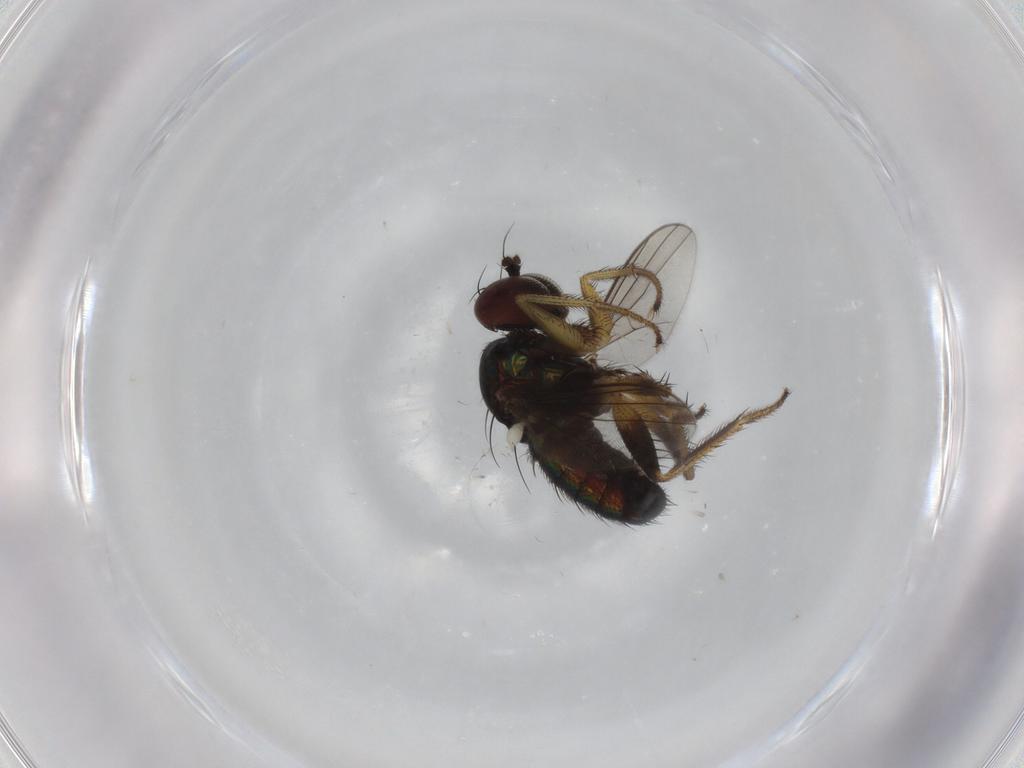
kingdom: Animalia
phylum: Arthropoda
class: Insecta
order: Diptera
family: Dolichopodidae
